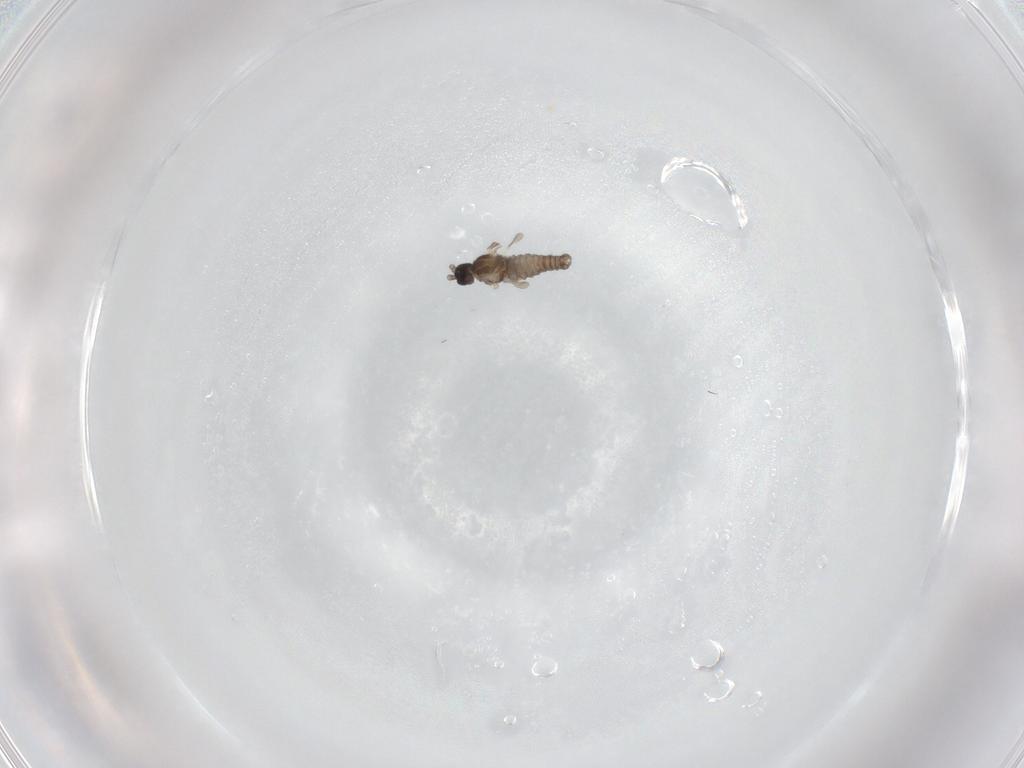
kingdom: Animalia
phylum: Arthropoda
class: Insecta
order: Diptera
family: Cecidomyiidae
